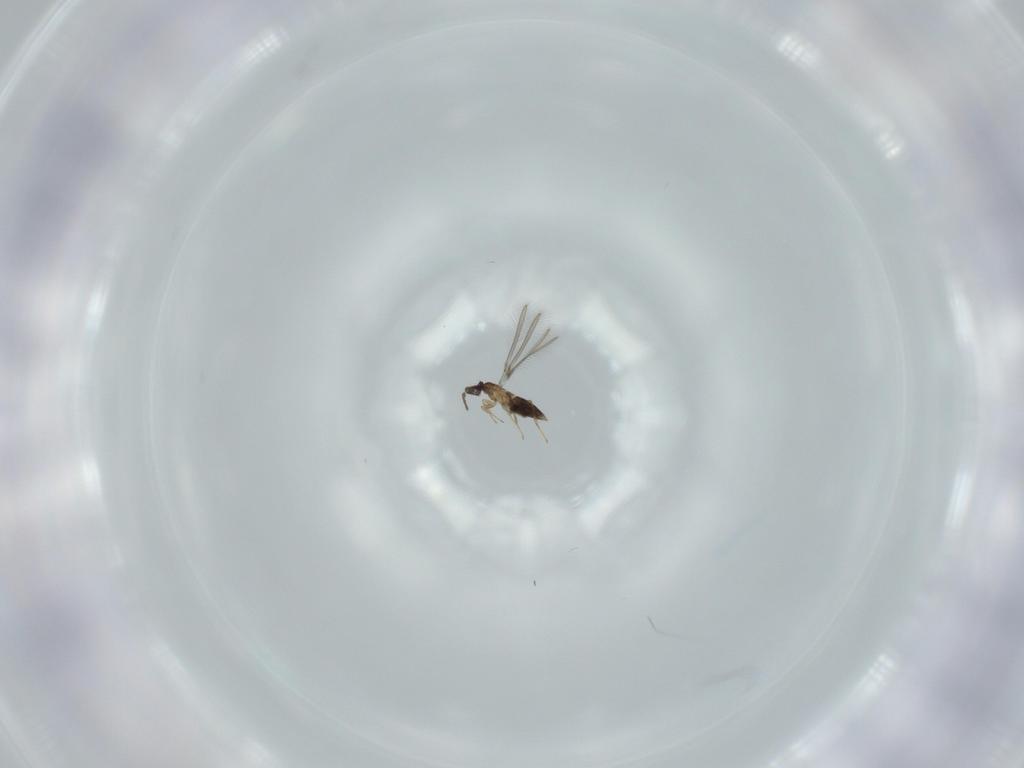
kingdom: Animalia
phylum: Arthropoda
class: Insecta
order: Hymenoptera
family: Mymaridae
